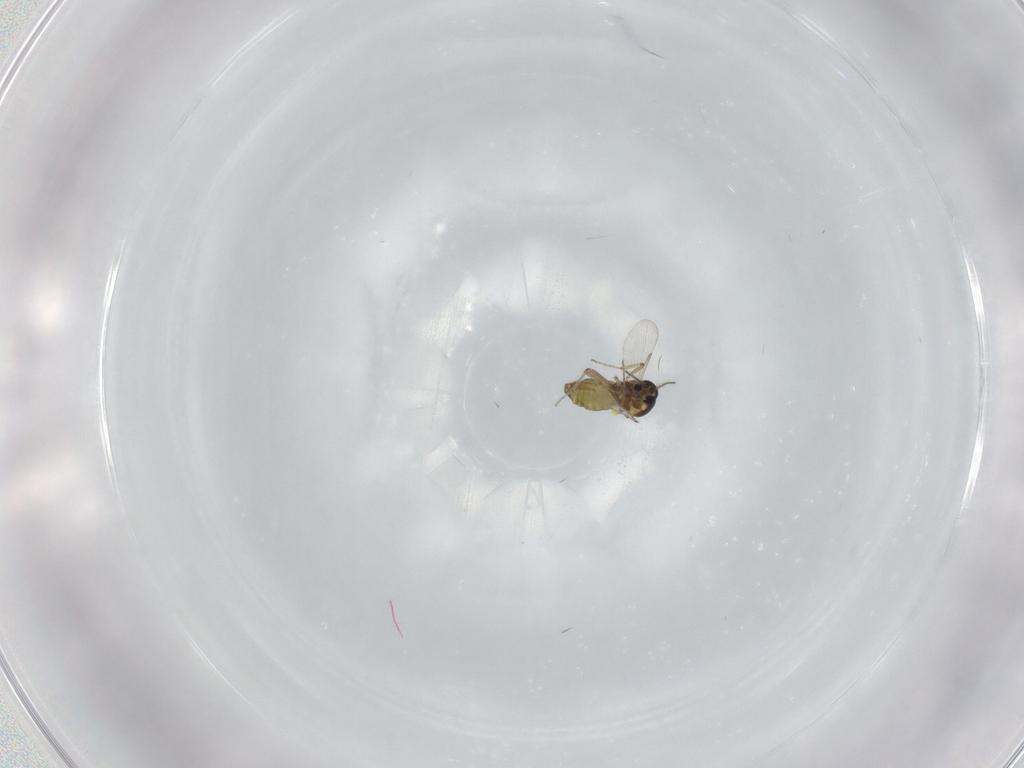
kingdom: Animalia
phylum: Arthropoda
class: Insecta
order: Diptera
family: Ceratopogonidae
